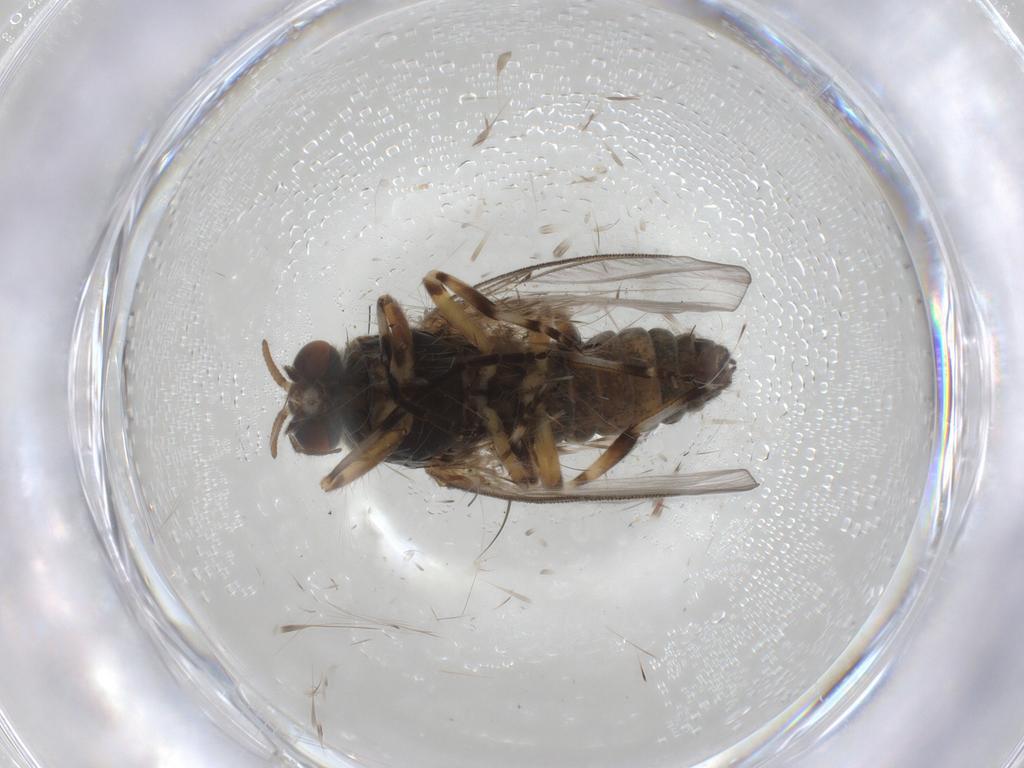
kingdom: Animalia
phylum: Arthropoda
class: Insecta
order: Diptera
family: Simuliidae
